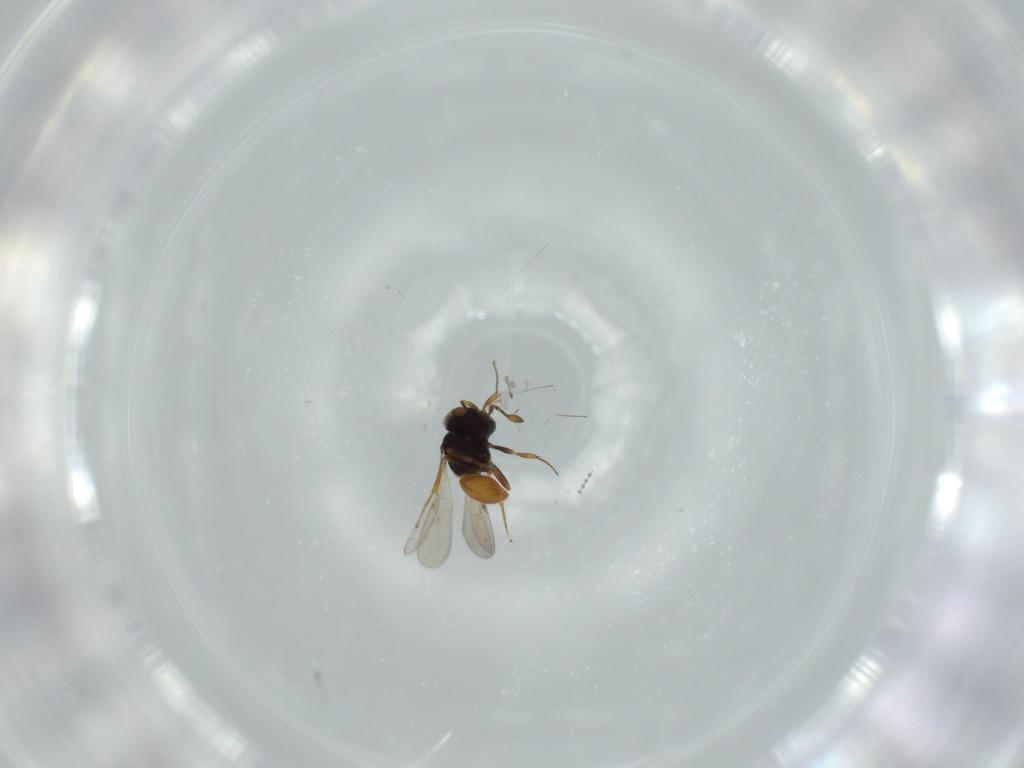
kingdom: Animalia
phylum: Arthropoda
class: Insecta
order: Hymenoptera
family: Scelionidae
